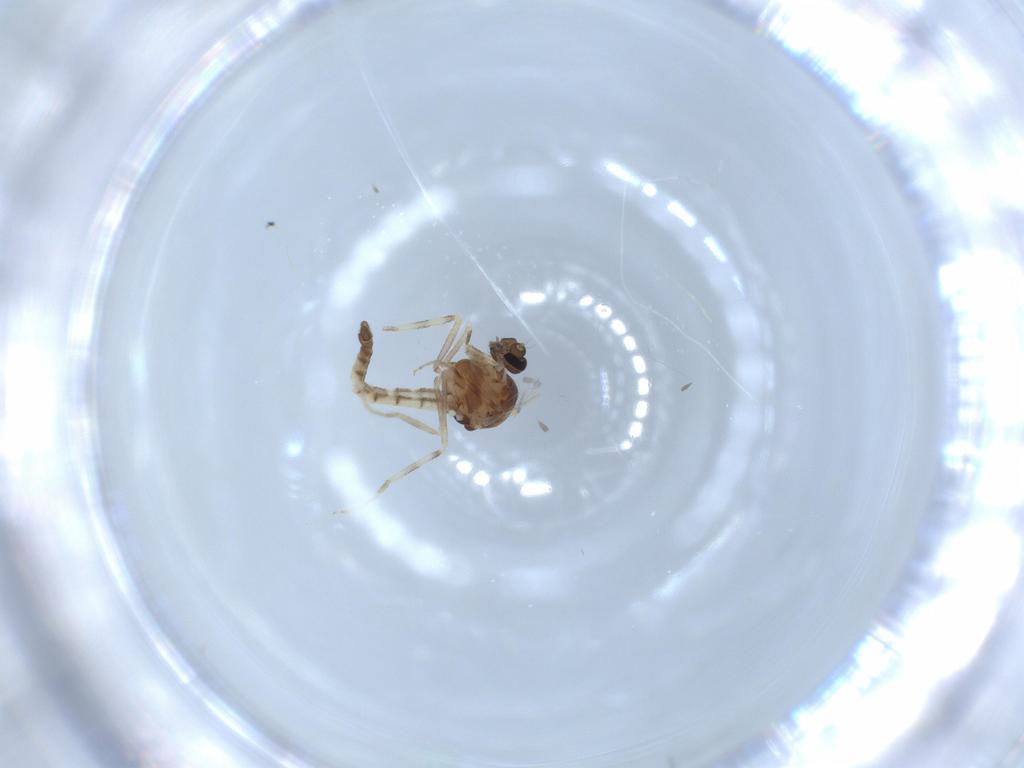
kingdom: Animalia
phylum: Arthropoda
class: Insecta
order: Diptera
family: Ceratopogonidae
